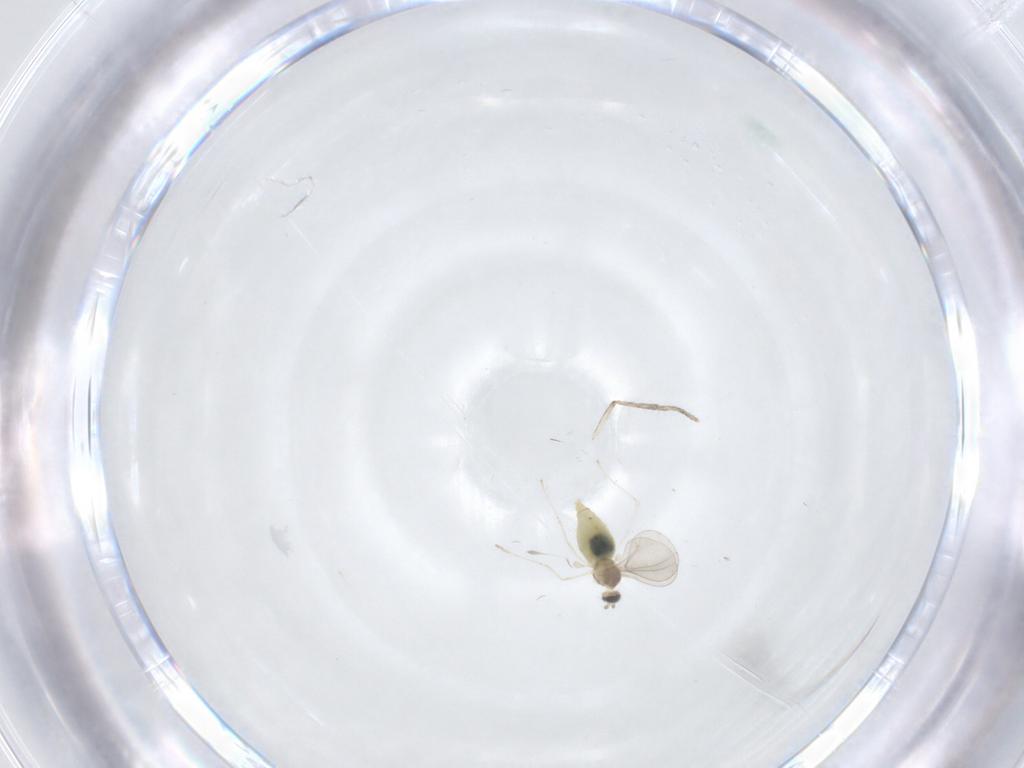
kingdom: Animalia
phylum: Arthropoda
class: Insecta
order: Diptera
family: Cecidomyiidae
